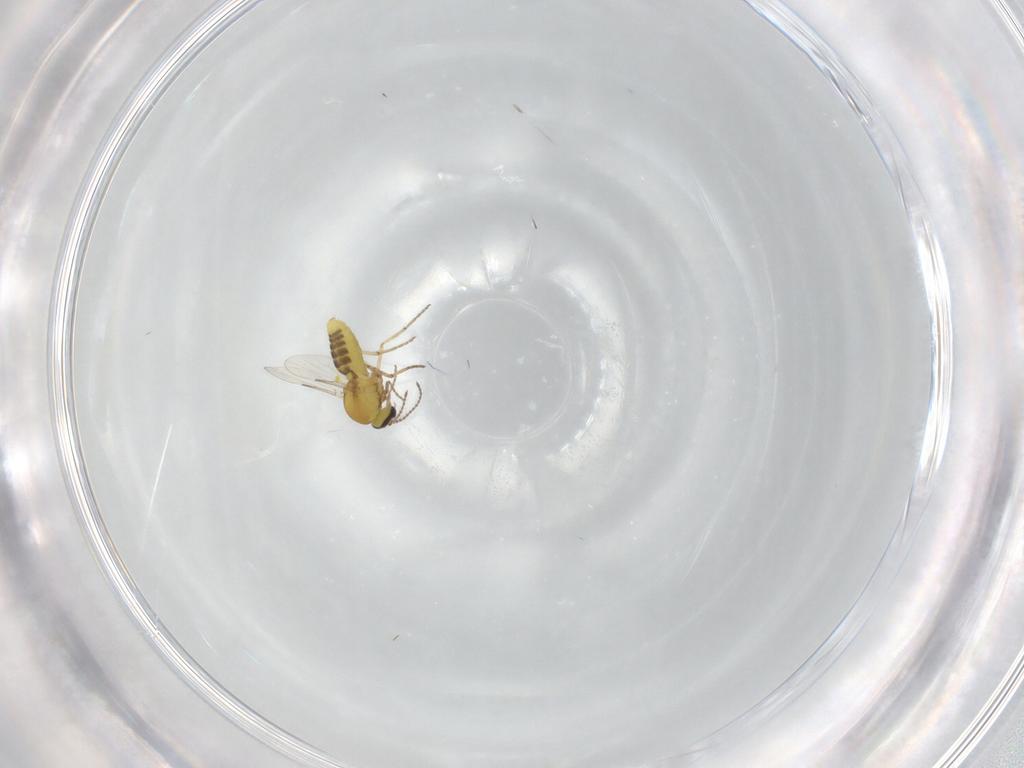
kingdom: Animalia
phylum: Arthropoda
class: Insecta
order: Diptera
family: Ceratopogonidae
